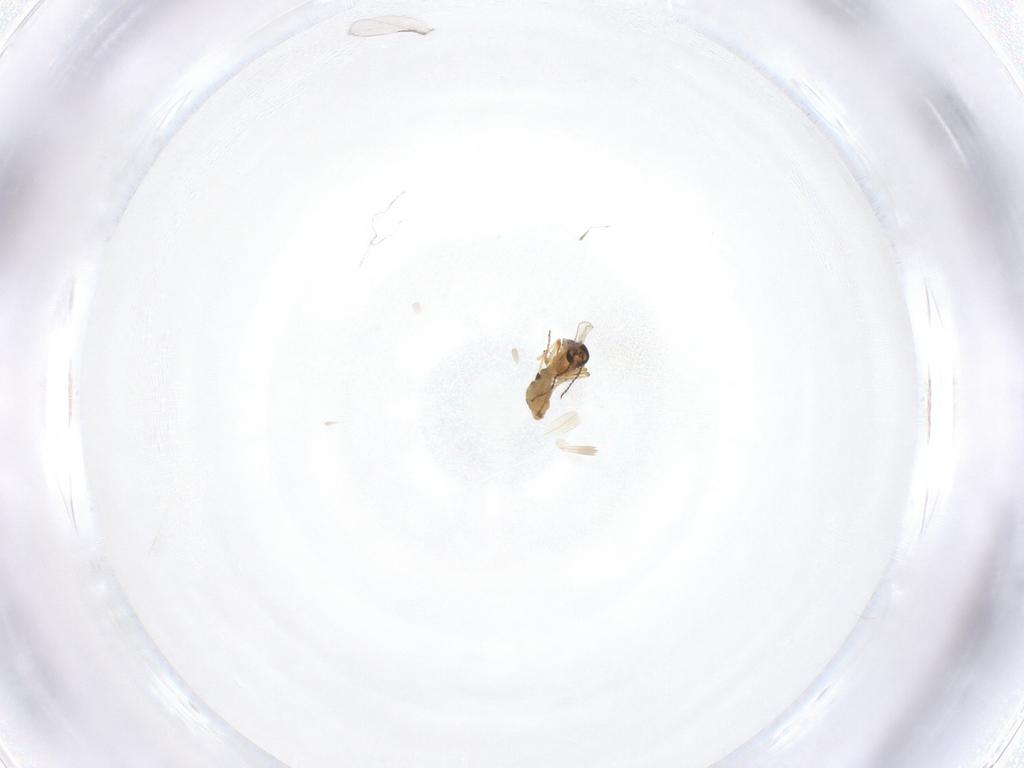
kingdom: Animalia
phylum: Arthropoda
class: Insecta
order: Diptera
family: Ceratopogonidae
